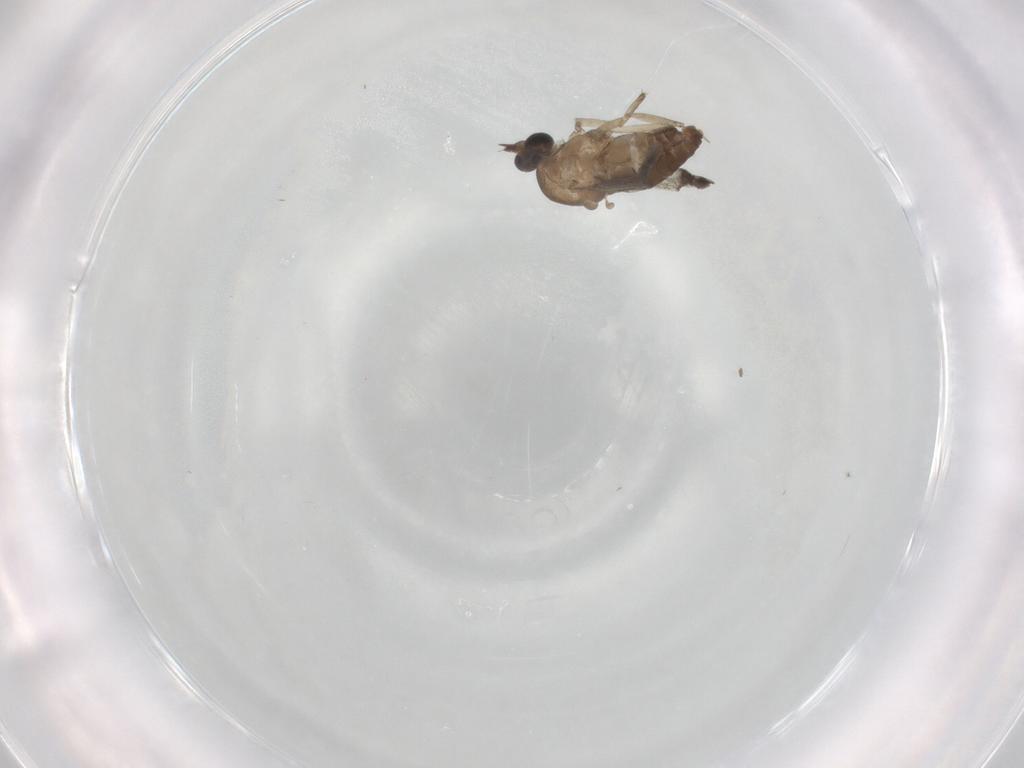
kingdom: Animalia
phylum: Arthropoda
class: Insecta
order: Diptera
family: Ceratopogonidae
